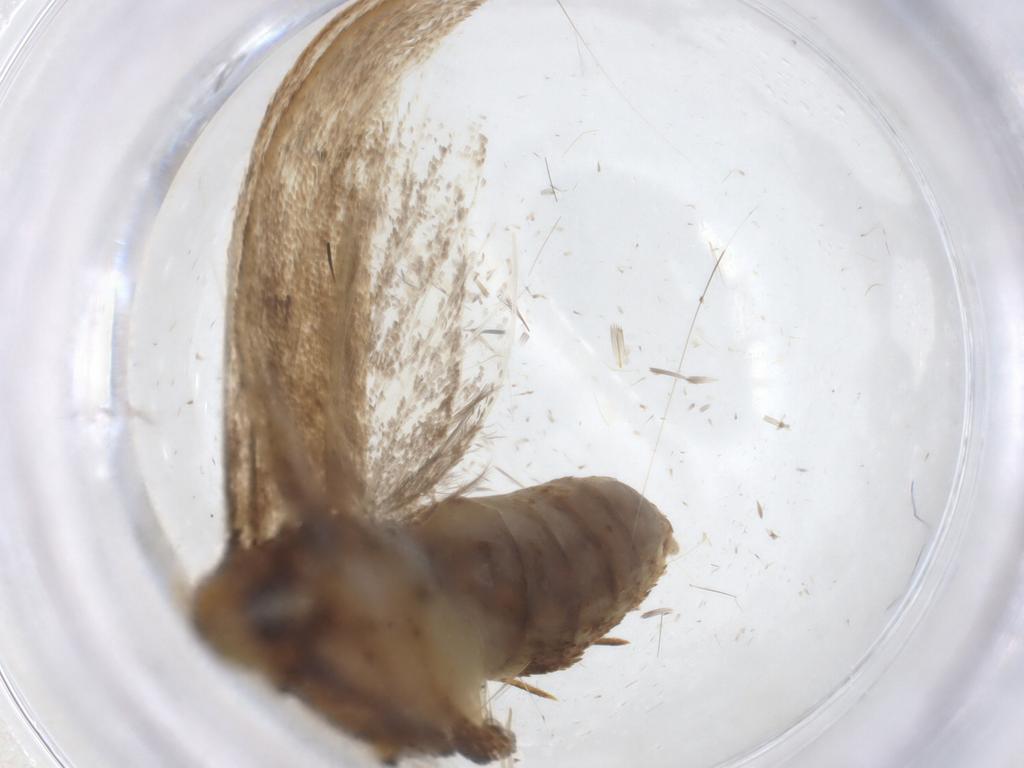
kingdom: Animalia
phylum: Arthropoda
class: Insecta
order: Lepidoptera
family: Lecithoceridae
